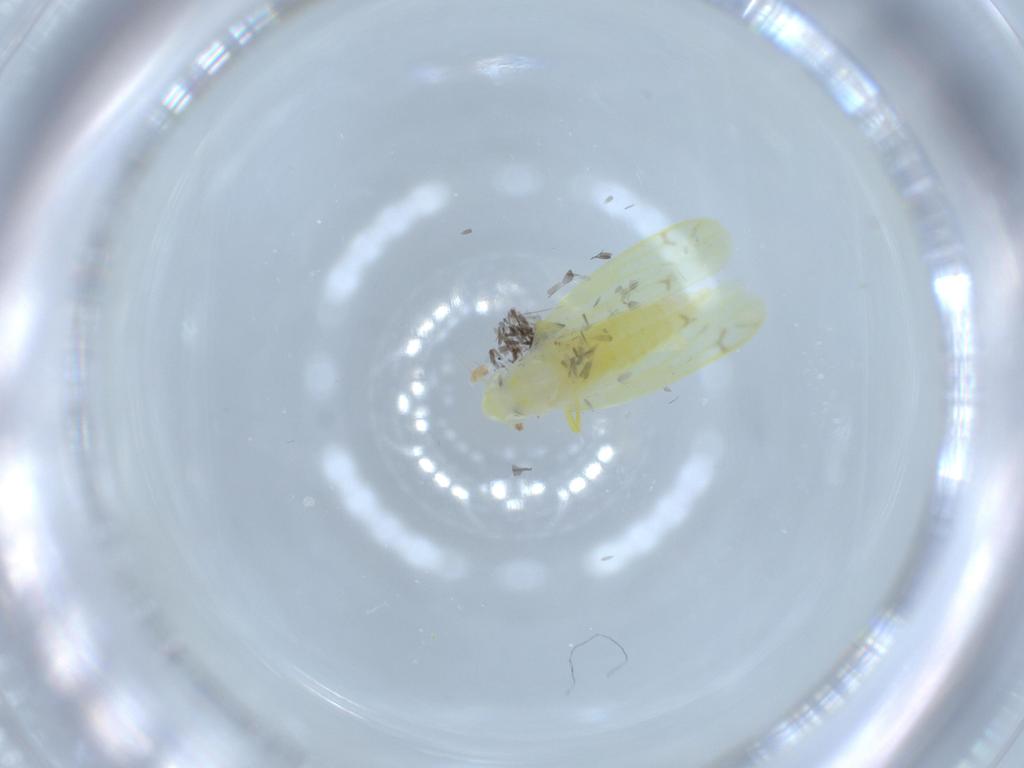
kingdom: Animalia
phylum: Arthropoda
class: Insecta
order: Hemiptera
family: Cicadellidae
